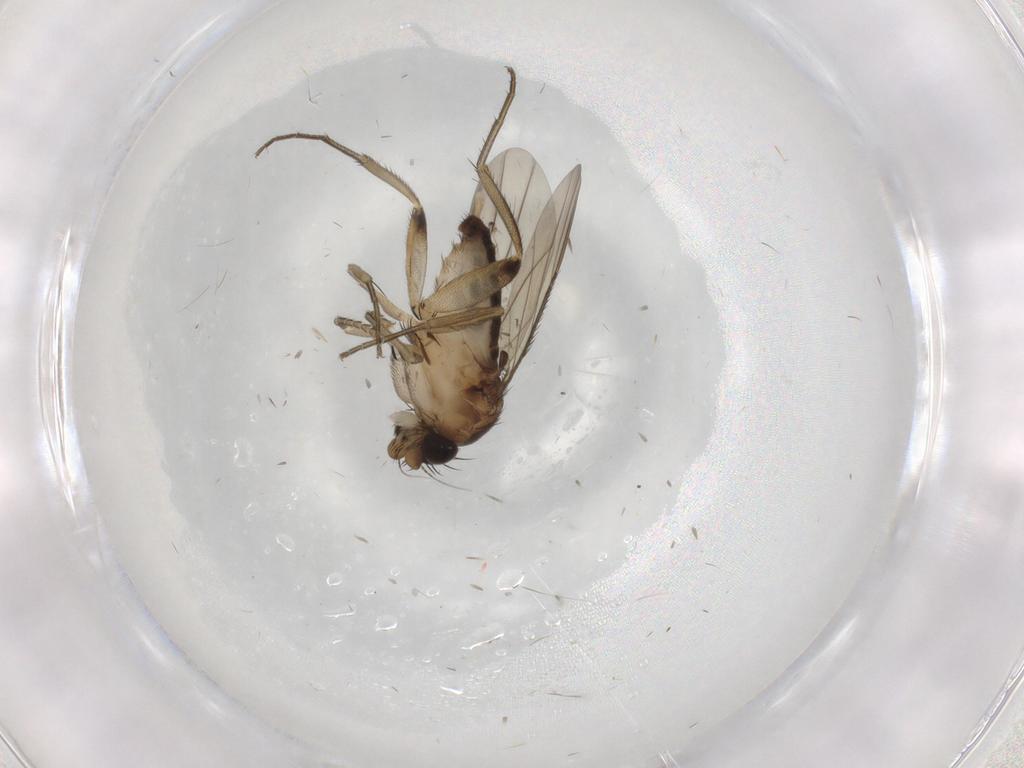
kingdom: Animalia
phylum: Arthropoda
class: Insecta
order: Diptera
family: Phoridae
